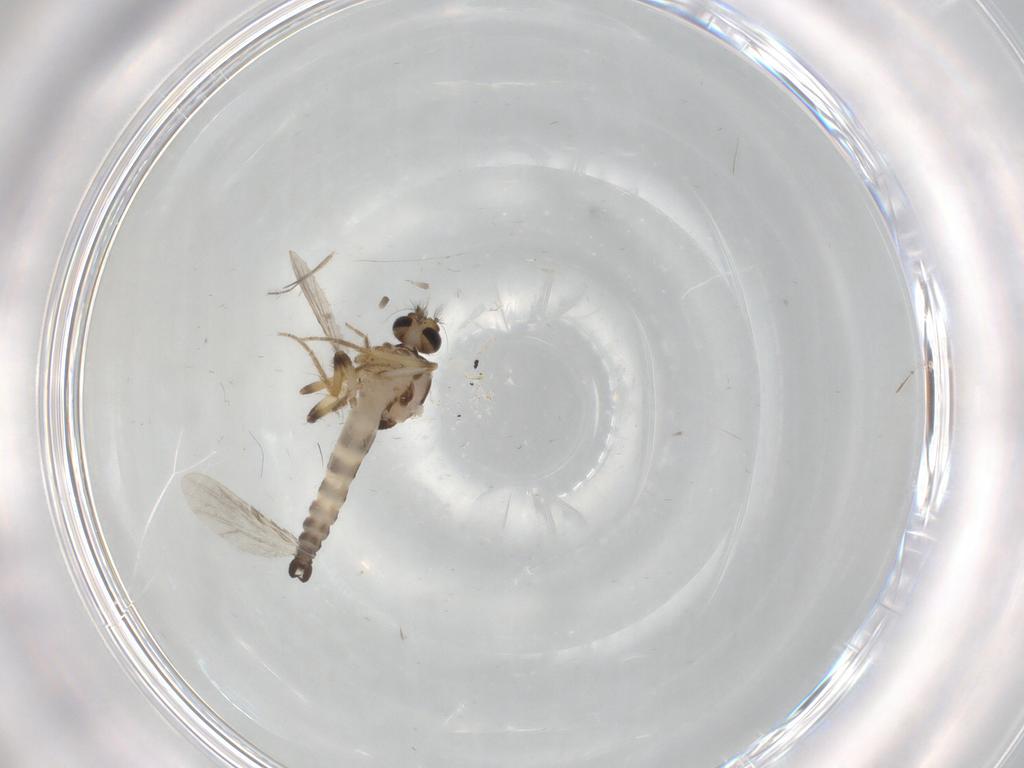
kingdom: Animalia
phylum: Arthropoda
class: Insecta
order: Diptera
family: Ceratopogonidae
